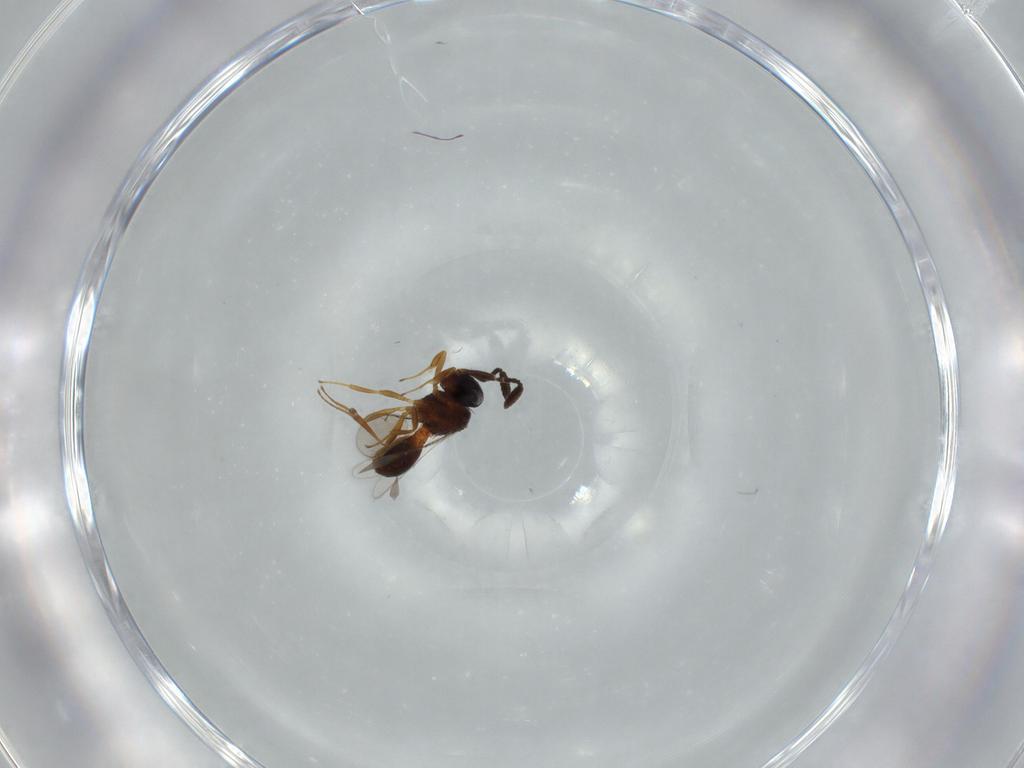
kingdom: Animalia
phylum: Arthropoda
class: Insecta
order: Hymenoptera
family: Scelionidae
